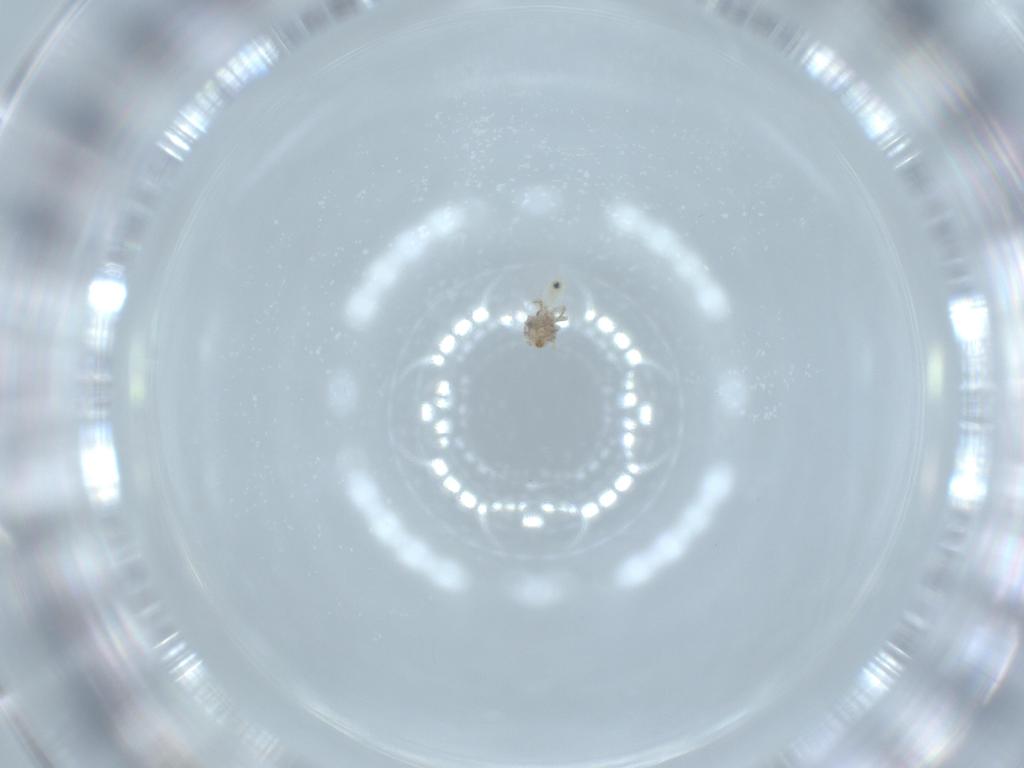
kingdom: Animalia
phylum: Arthropoda
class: Insecta
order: Psocodea
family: Lepidopsocidae
